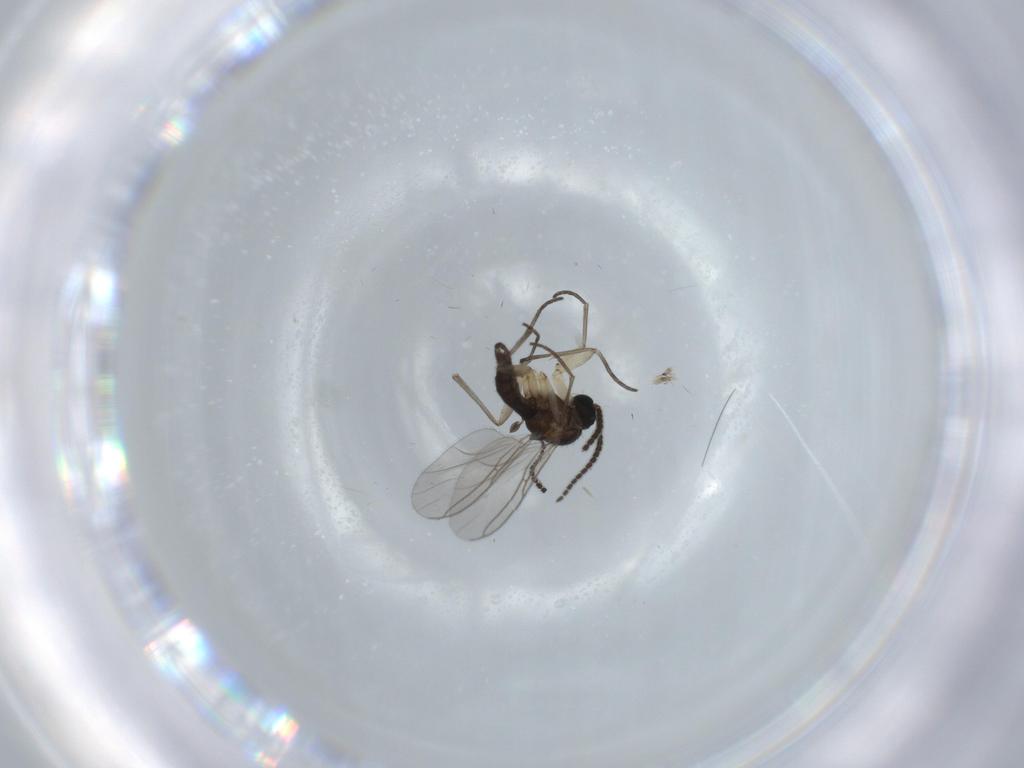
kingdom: Animalia
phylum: Arthropoda
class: Insecta
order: Diptera
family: Sciaridae
